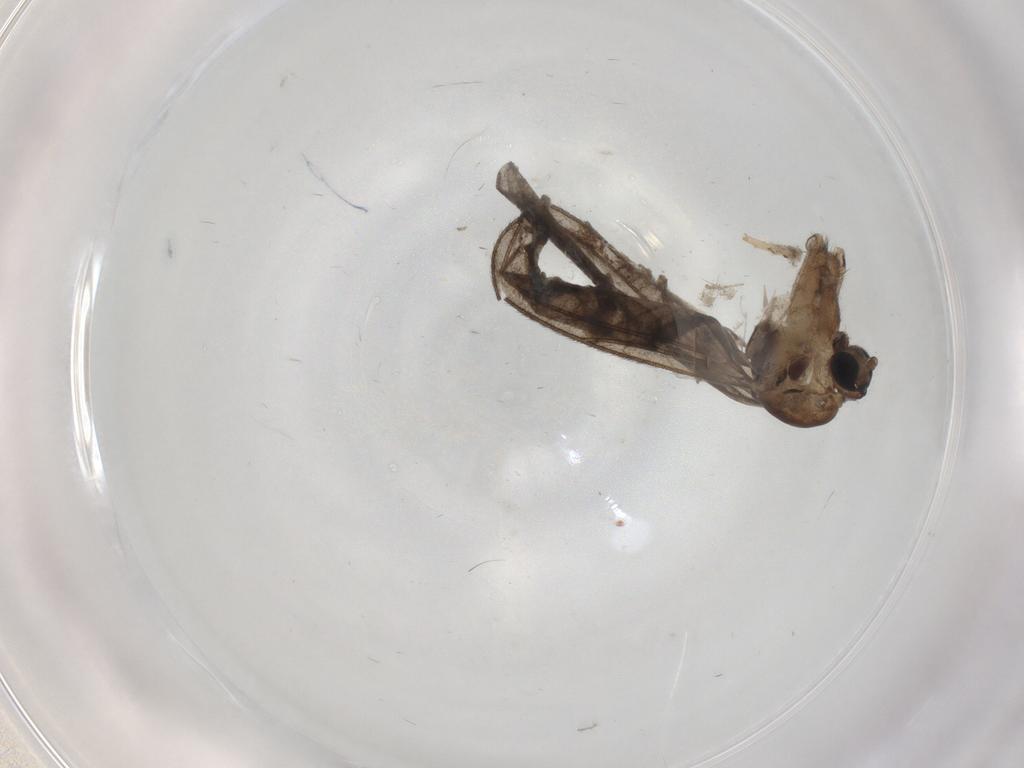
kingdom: Animalia
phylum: Arthropoda
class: Insecta
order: Diptera
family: Cecidomyiidae
